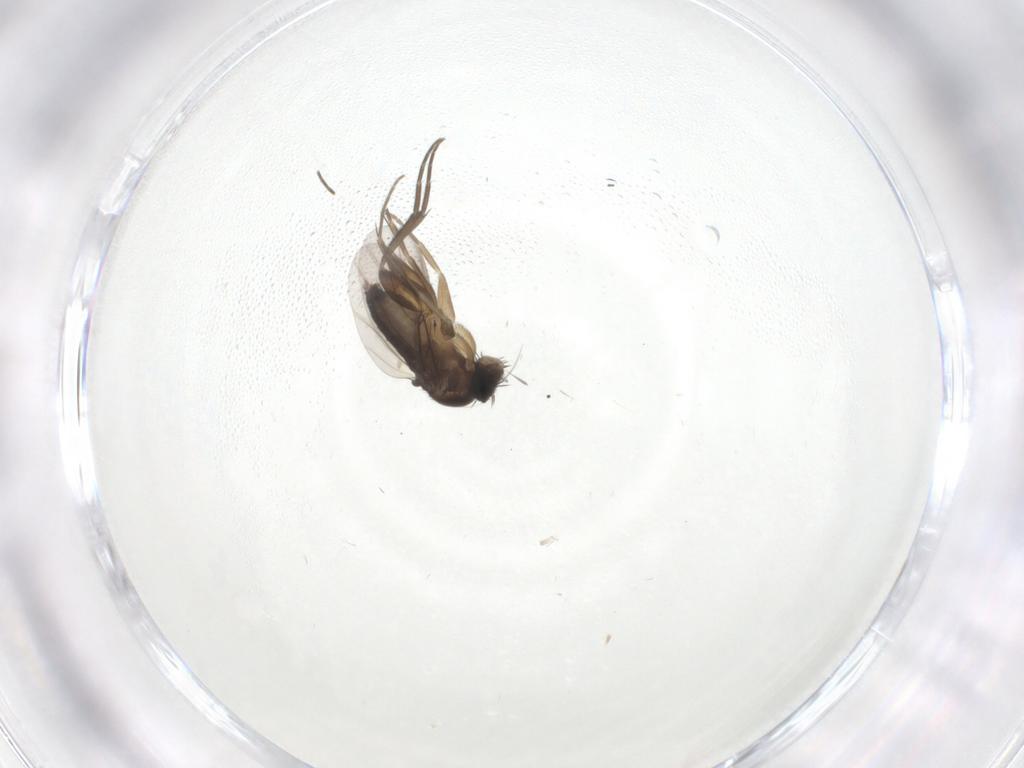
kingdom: Animalia
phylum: Arthropoda
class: Insecta
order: Diptera
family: Phoridae
